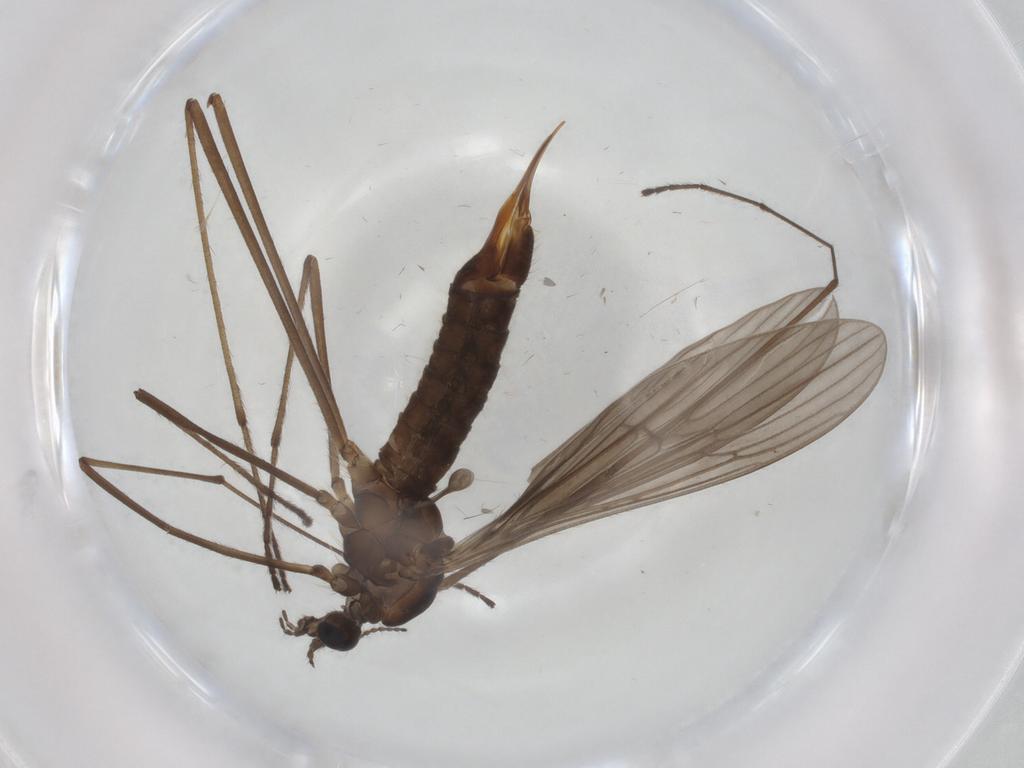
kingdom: Animalia
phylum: Arthropoda
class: Insecta
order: Diptera
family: Limoniidae
